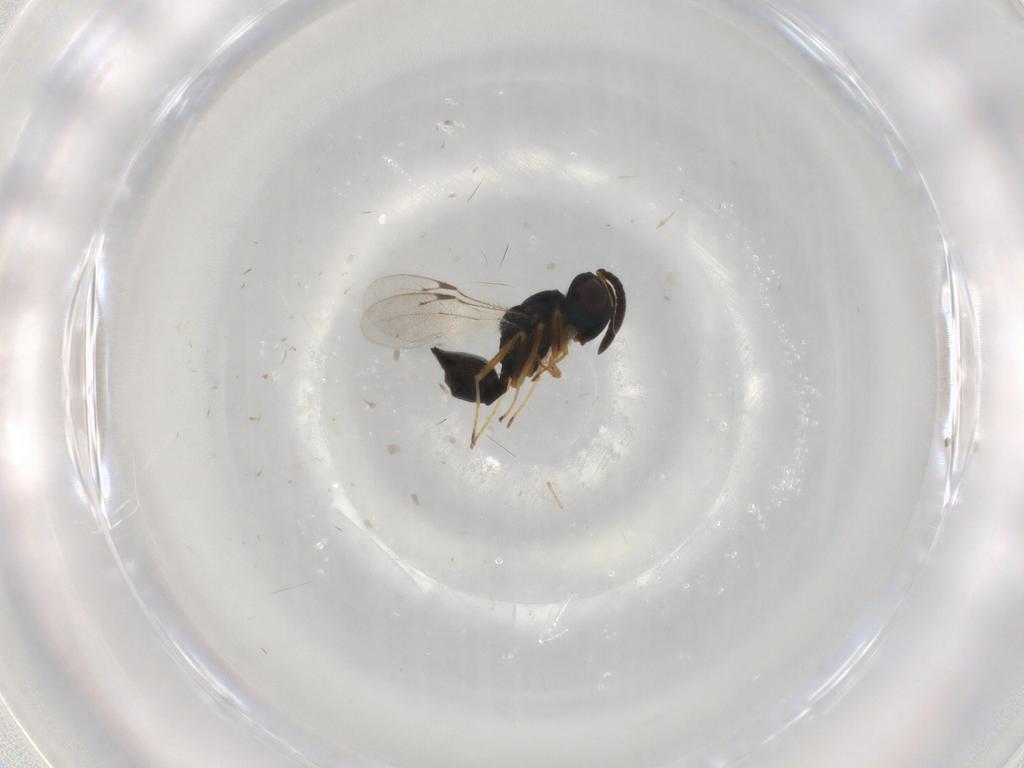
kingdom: Animalia
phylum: Arthropoda
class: Insecta
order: Hymenoptera
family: Pteromalidae
